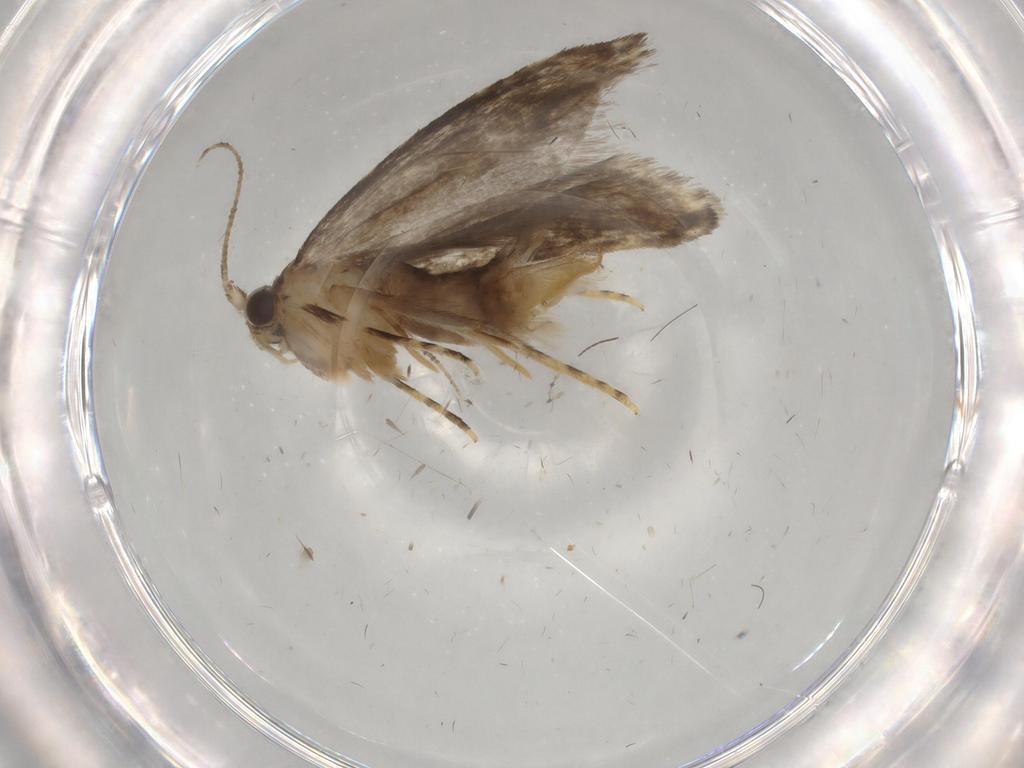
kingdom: Animalia
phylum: Arthropoda
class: Insecta
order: Lepidoptera
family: Tineidae
